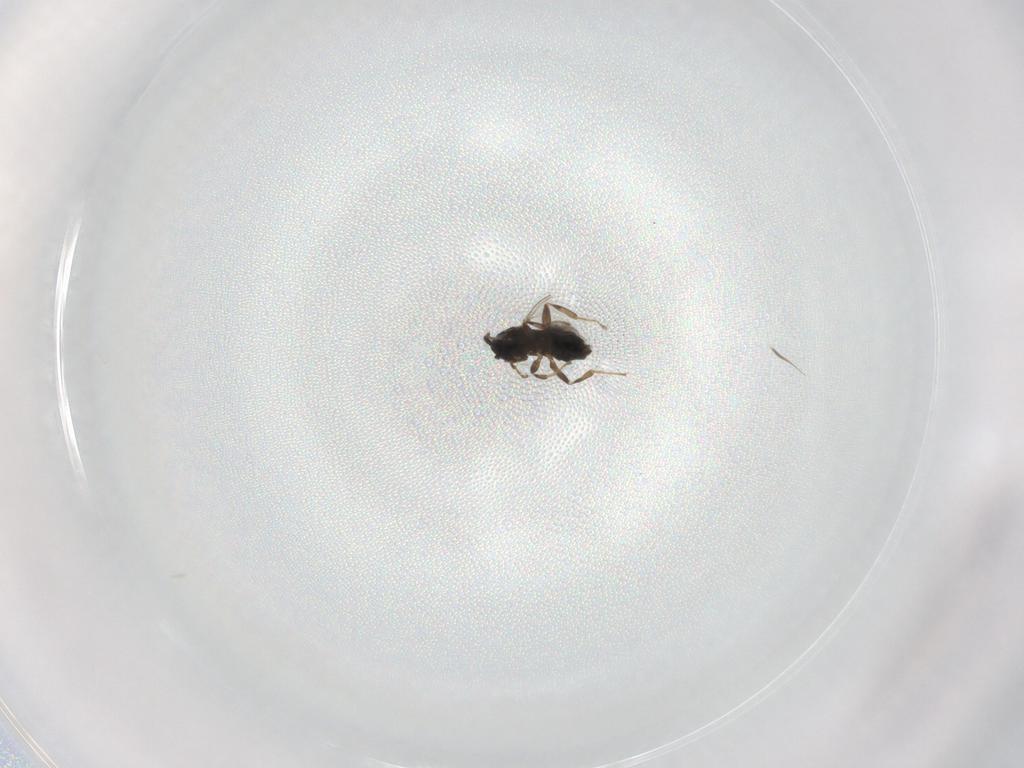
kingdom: Animalia
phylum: Arthropoda
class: Insecta
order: Diptera
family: Scatopsidae
